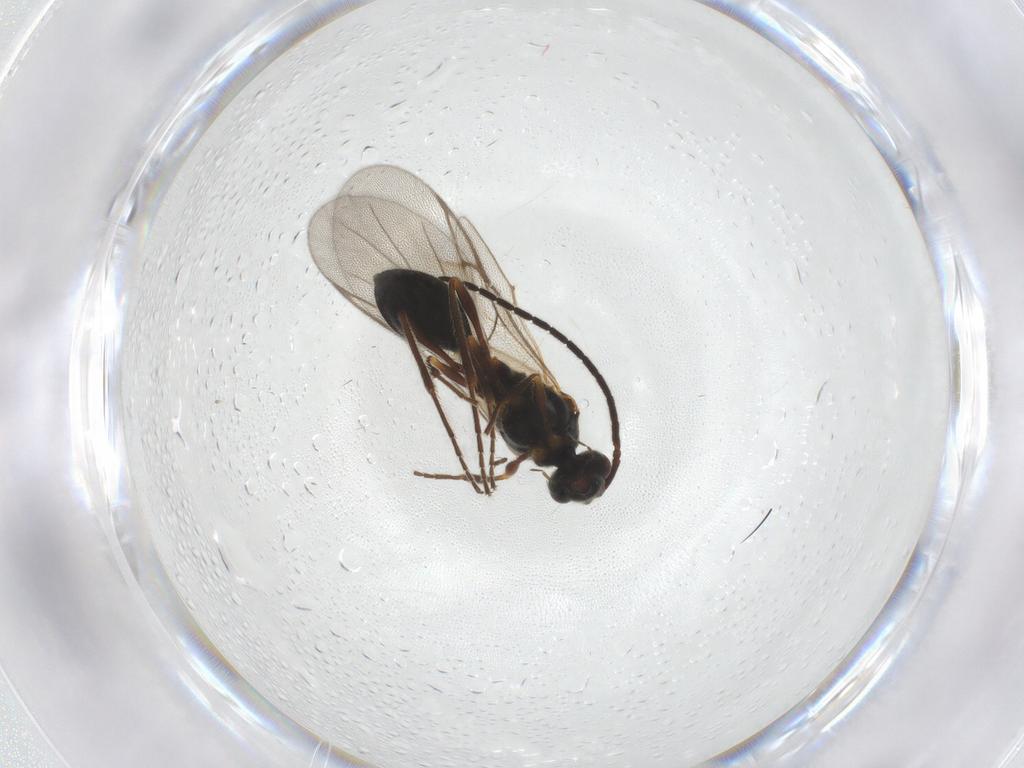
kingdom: Animalia
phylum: Arthropoda
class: Insecta
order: Hymenoptera
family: Diapriidae
